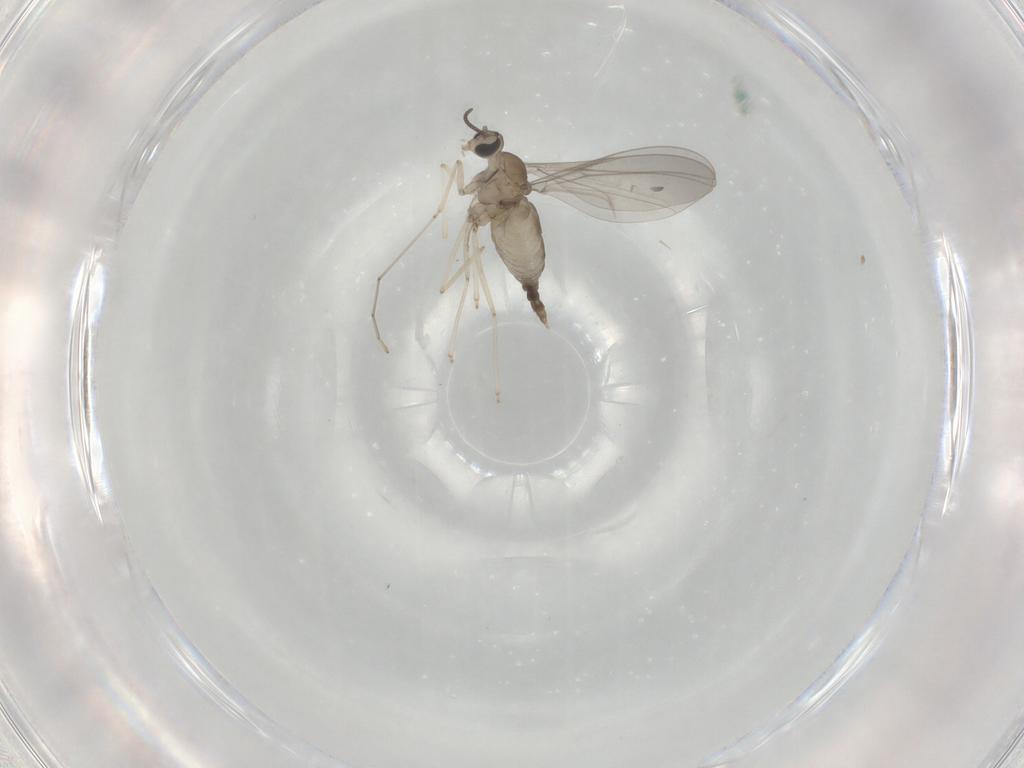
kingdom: Animalia
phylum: Arthropoda
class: Insecta
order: Diptera
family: Cecidomyiidae
